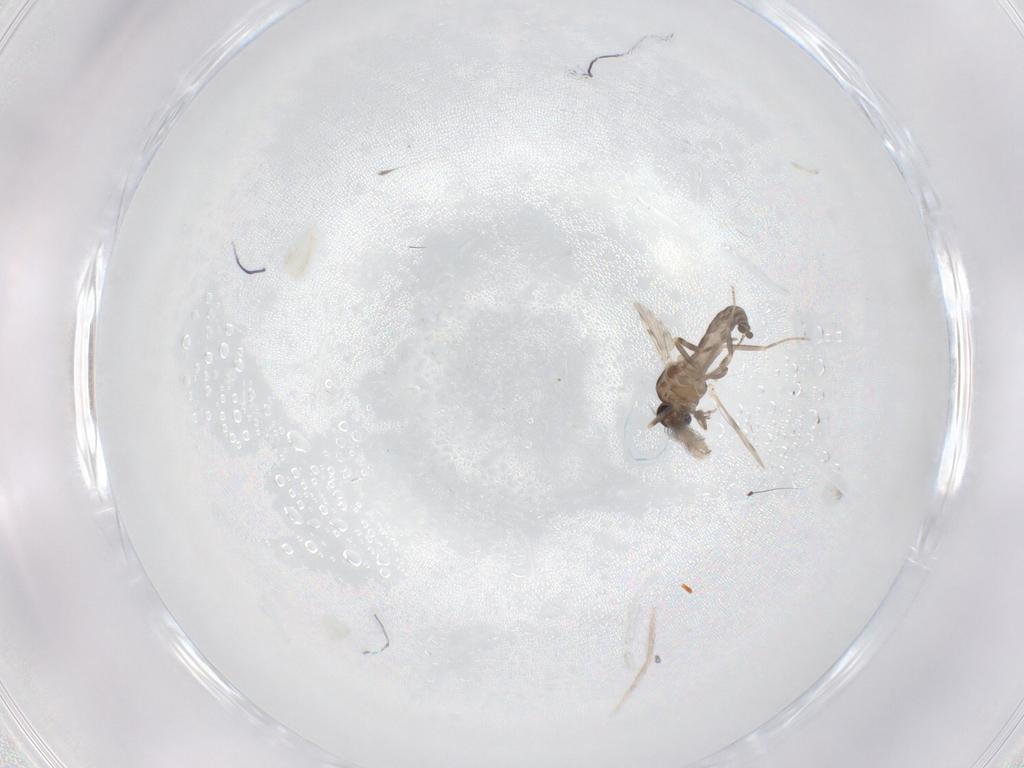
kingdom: Animalia
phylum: Arthropoda
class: Insecta
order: Diptera
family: Ceratopogonidae
